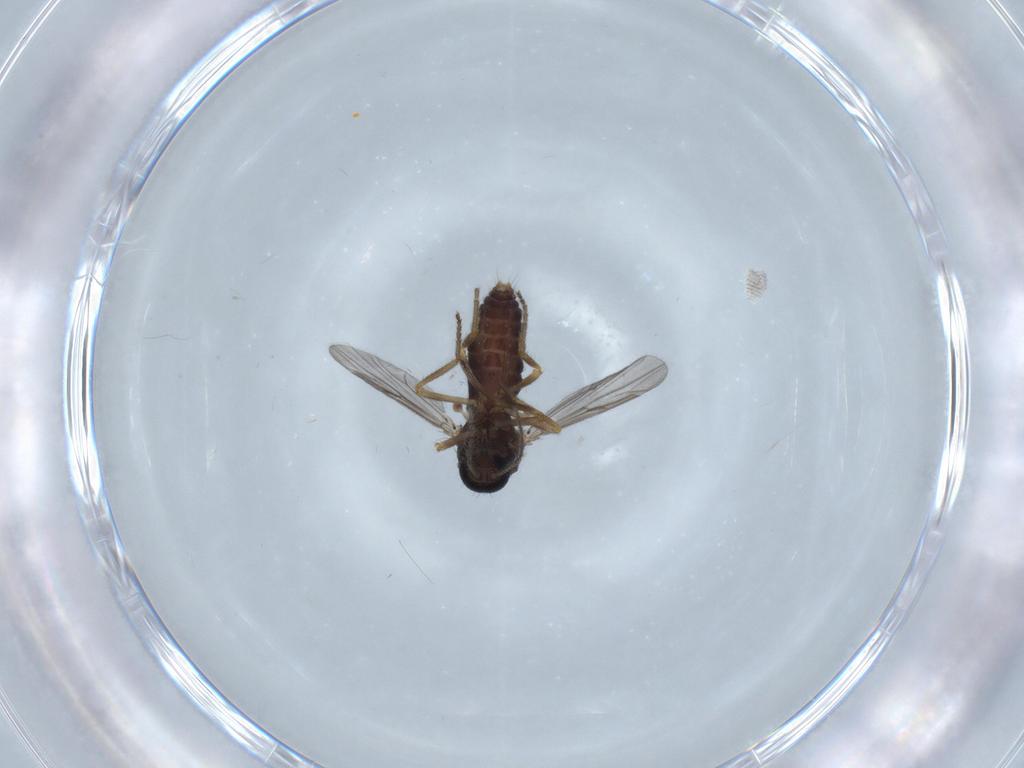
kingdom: Animalia
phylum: Arthropoda
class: Insecta
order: Diptera
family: Ceratopogonidae
